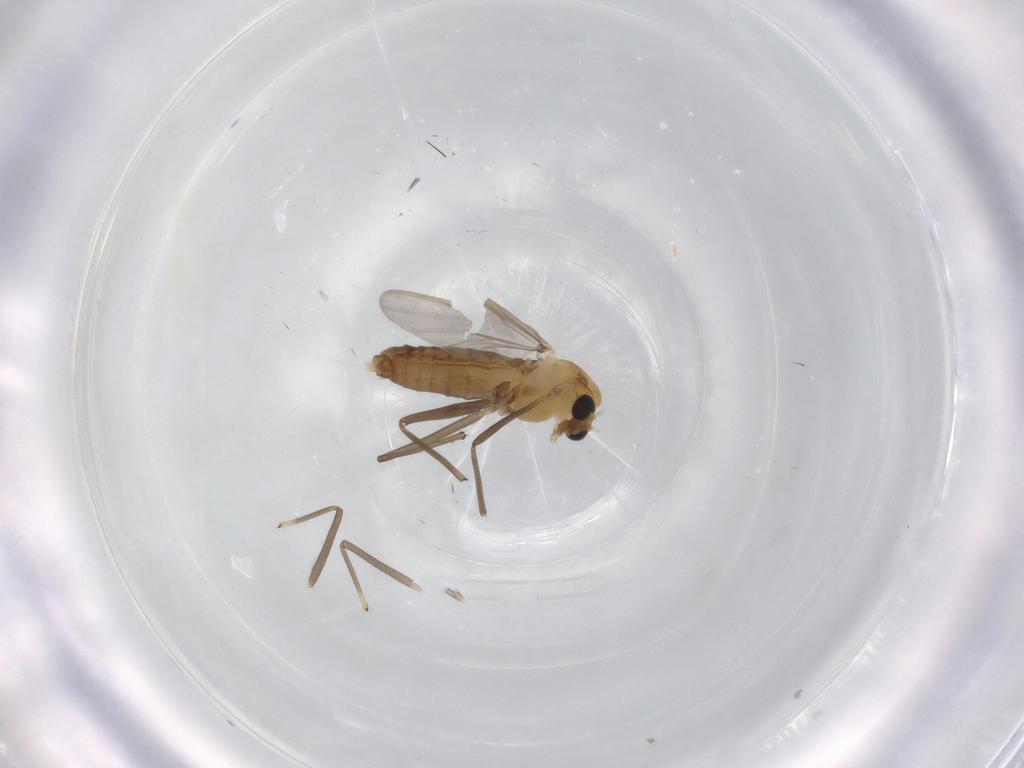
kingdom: Animalia
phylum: Arthropoda
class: Insecta
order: Diptera
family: Chironomidae
